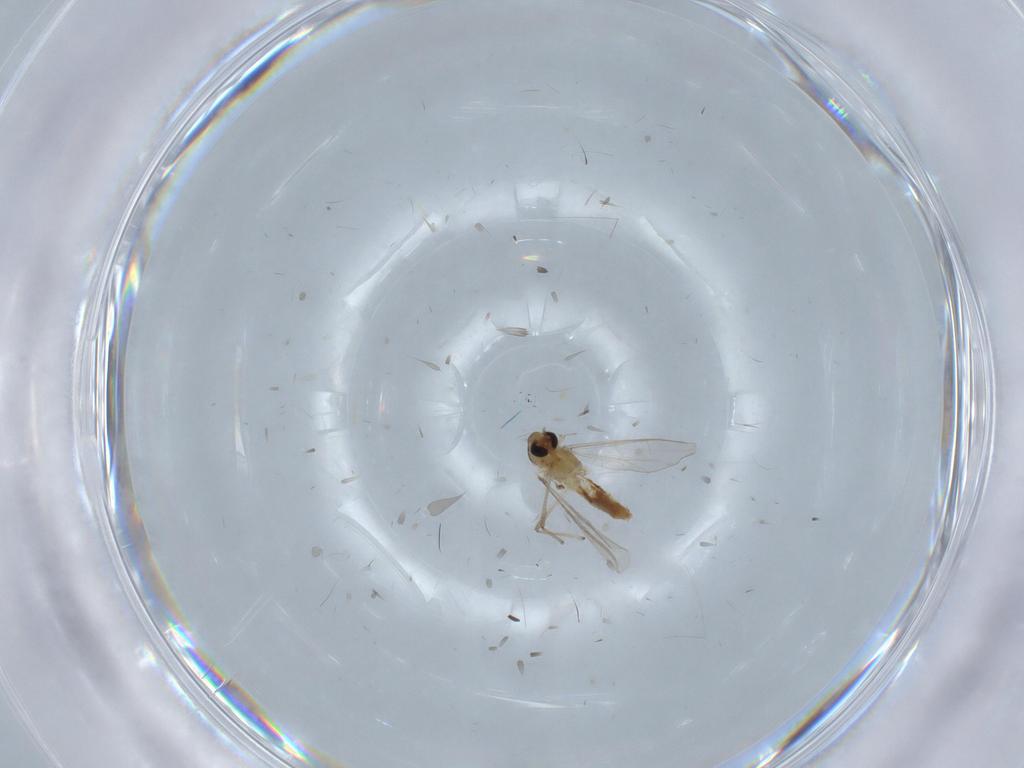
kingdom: Animalia
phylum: Arthropoda
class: Insecta
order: Diptera
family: Chironomidae
